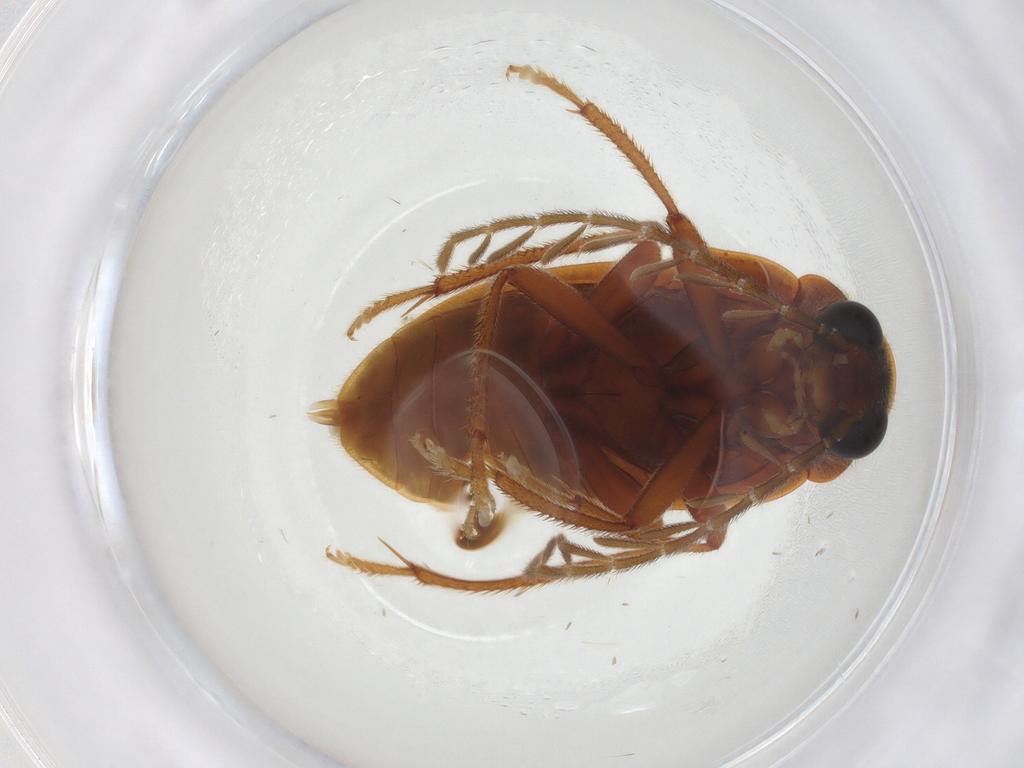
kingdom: Animalia
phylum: Arthropoda
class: Insecta
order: Coleoptera
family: Ptilodactylidae
